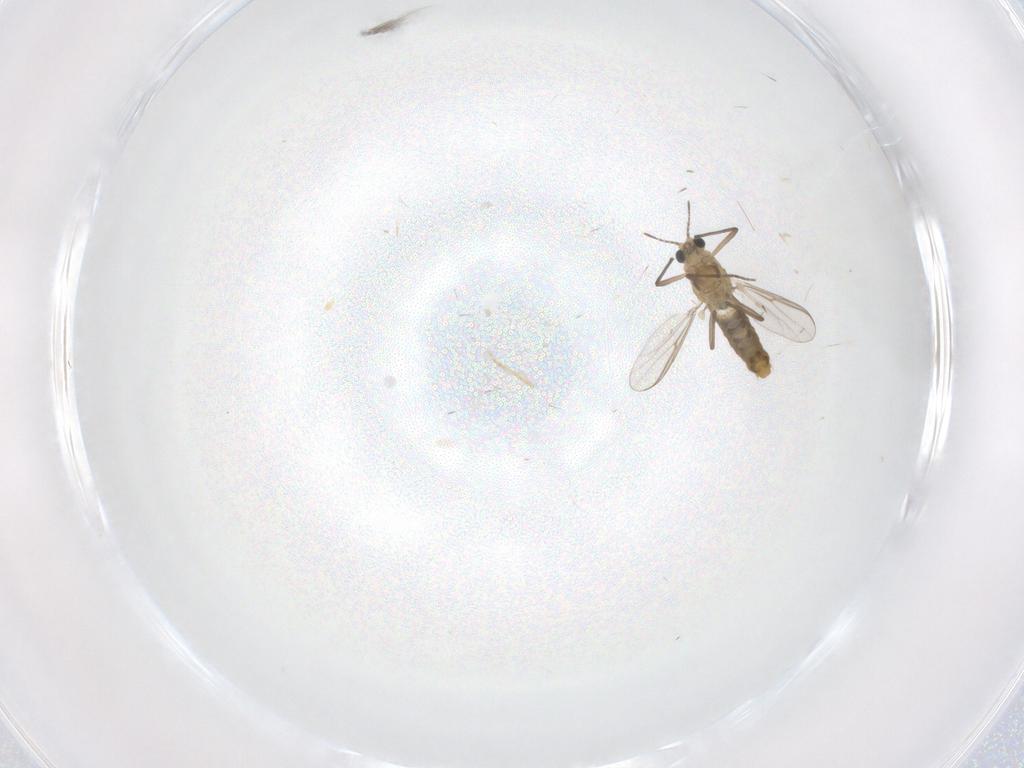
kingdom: Animalia
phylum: Arthropoda
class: Insecta
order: Diptera
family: Chironomidae
